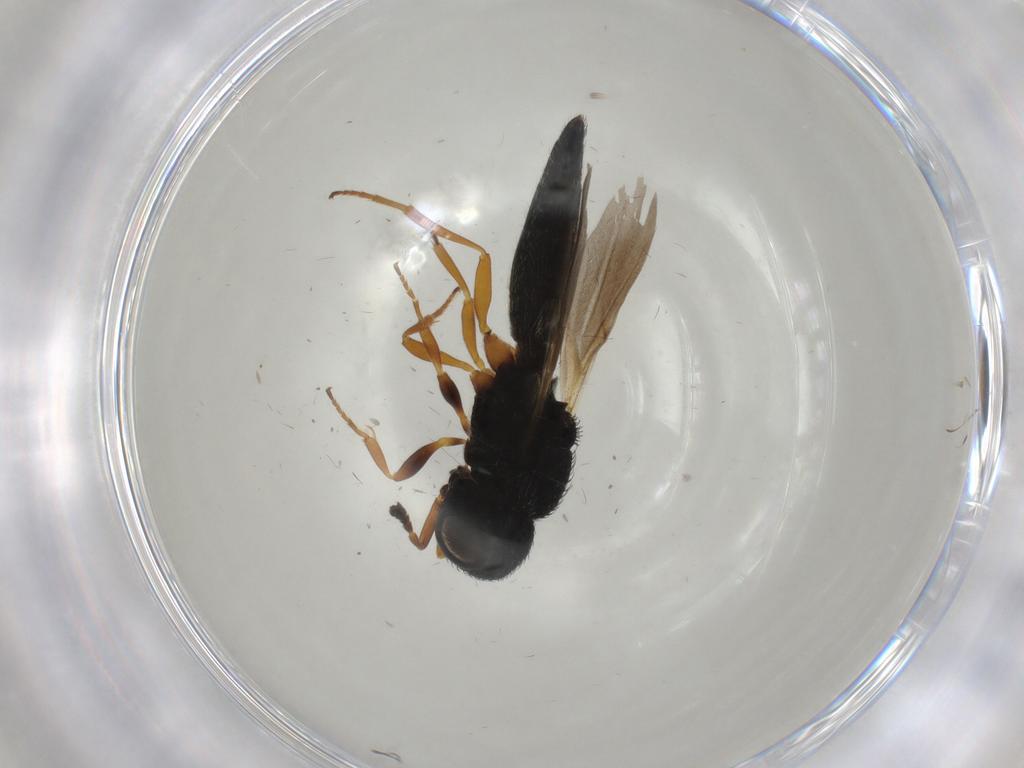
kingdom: Animalia
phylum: Arthropoda
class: Insecta
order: Hymenoptera
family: Scelionidae
